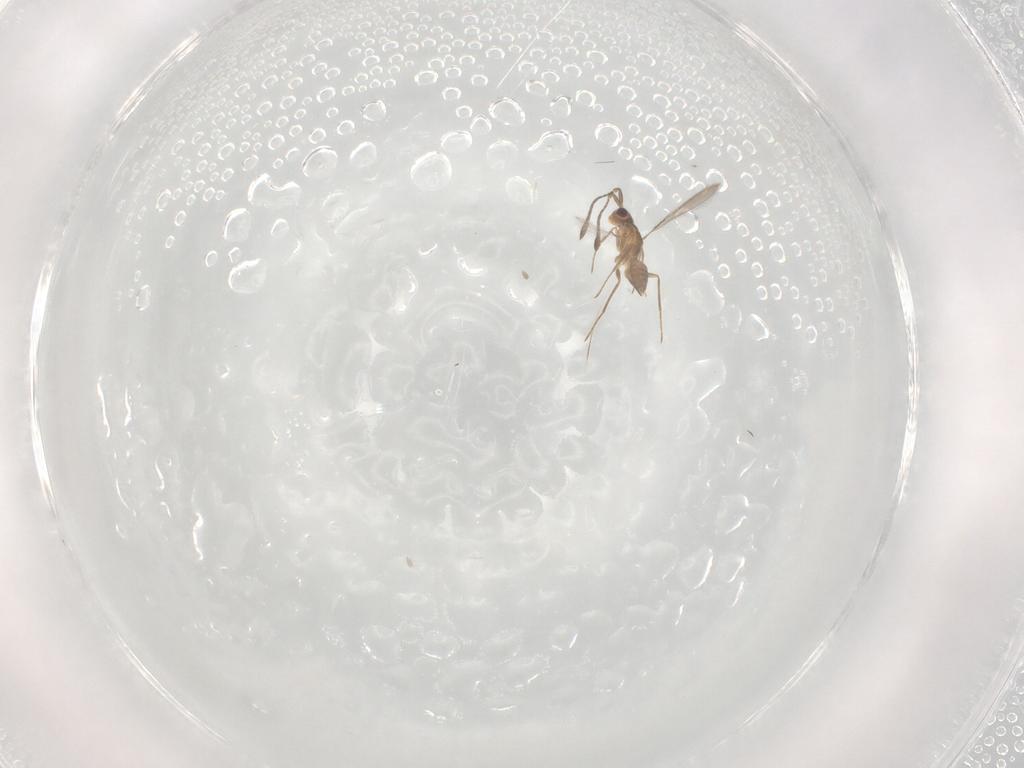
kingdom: Animalia
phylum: Arthropoda
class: Insecta
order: Hymenoptera
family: Mymaridae
